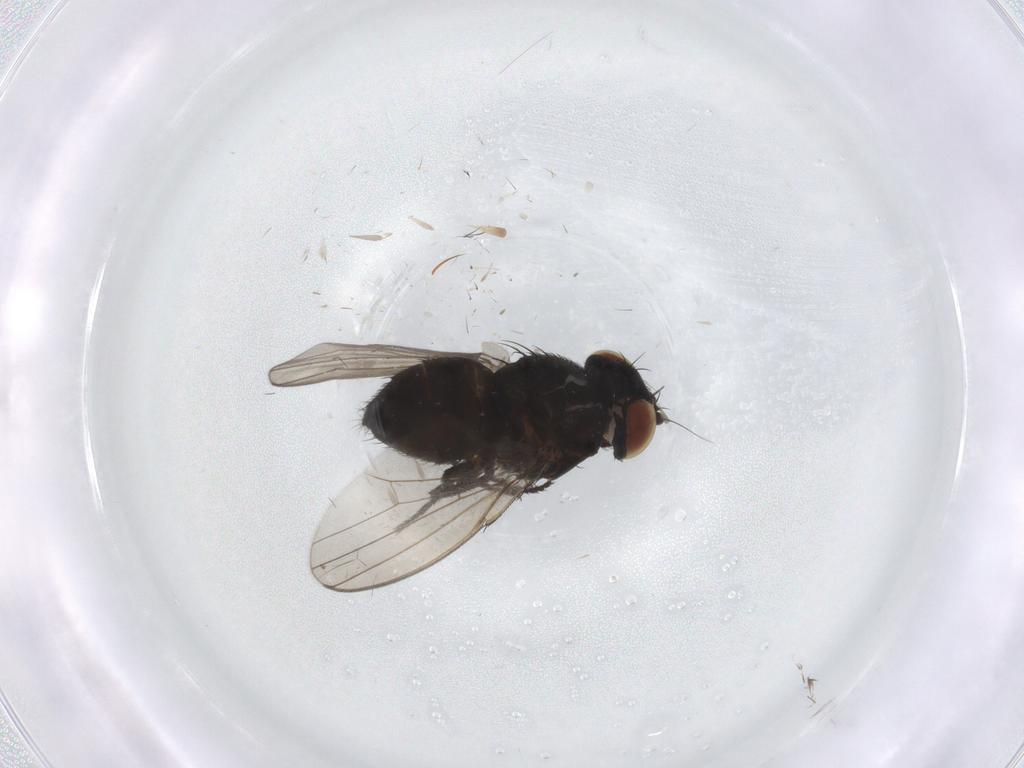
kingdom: Animalia
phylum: Arthropoda
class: Insecta
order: Diptera
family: Milichiidae
